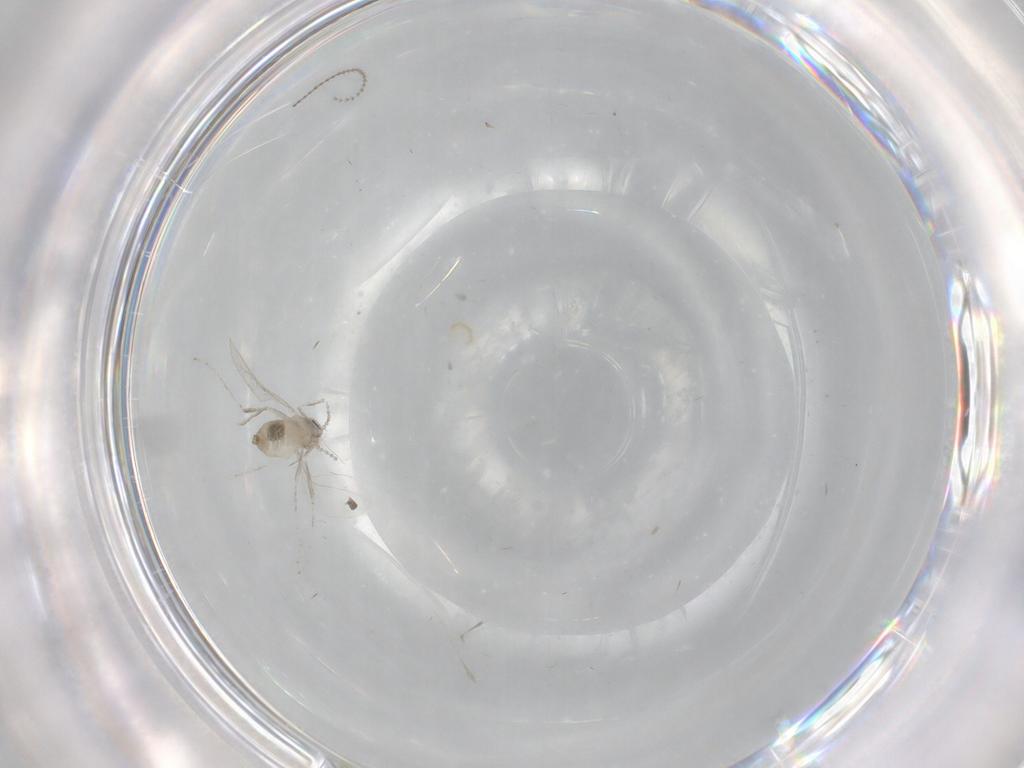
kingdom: Animalia
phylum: Arthropoda
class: Insecta
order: Diptera
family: Cecidomyiidae
